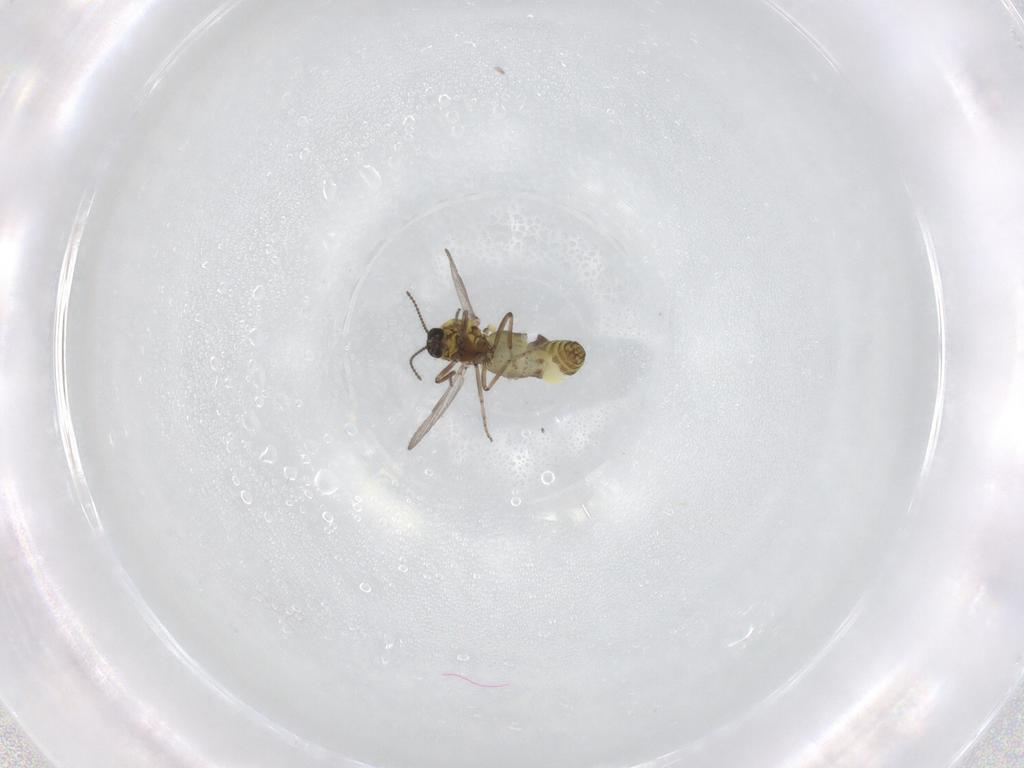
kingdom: Animalia
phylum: Arthropoda
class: Insecta
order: Diptera
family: Ceratopogonidae
